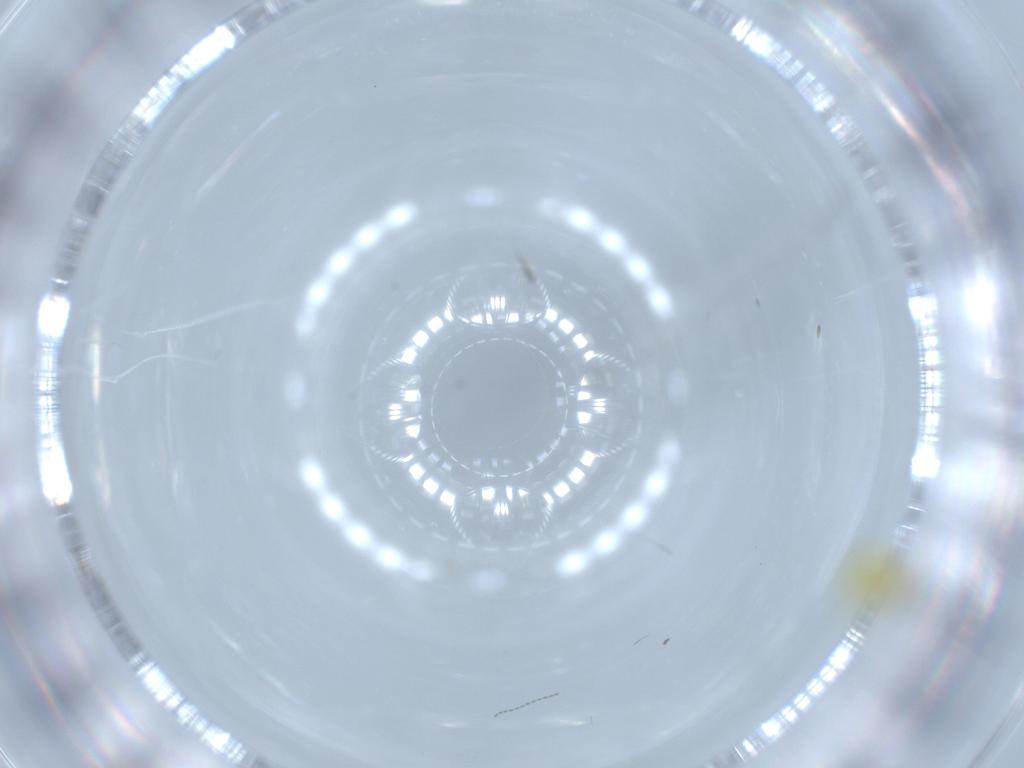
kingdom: Animalia
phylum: Arthropoda
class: Insecta
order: Hemiptera
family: Aleyrodidae
